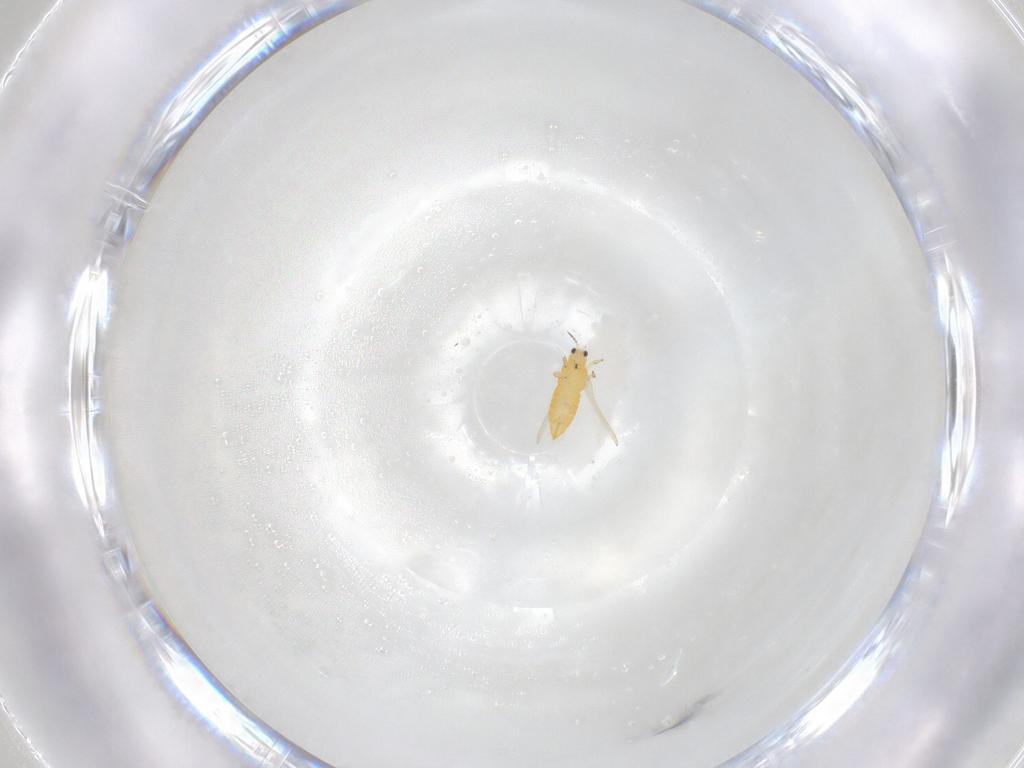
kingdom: Animalia
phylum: Arthropoda
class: Insecta
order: Thysanoptera
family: Thripidae
